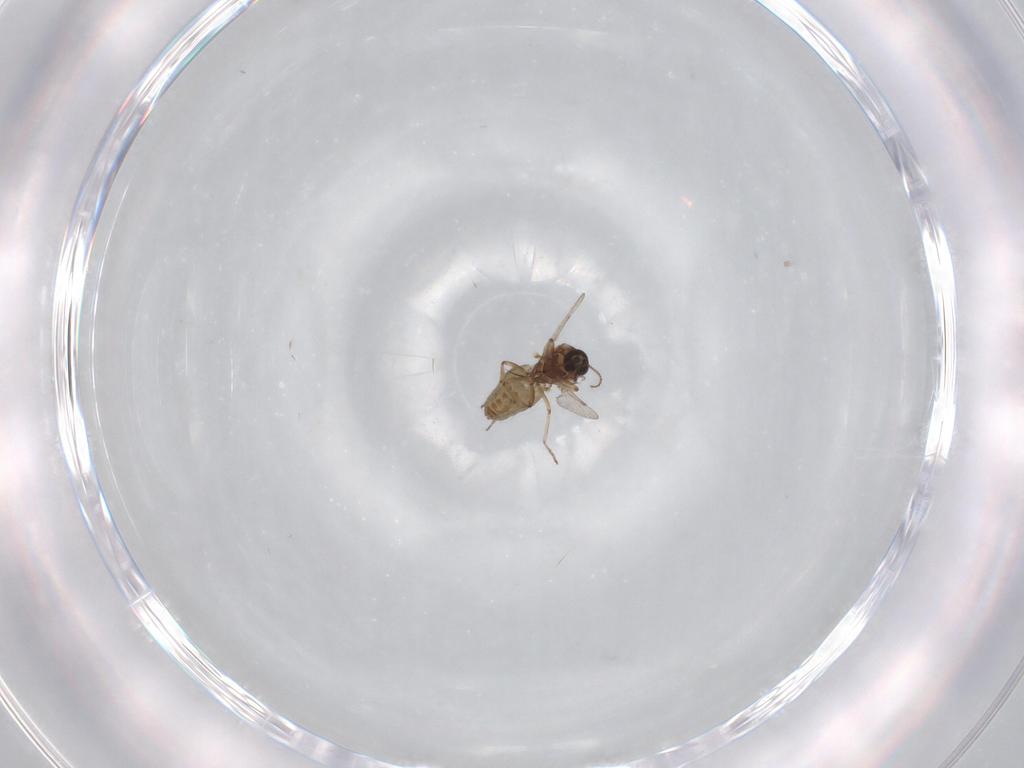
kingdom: Animalia
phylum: Arthropoda
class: Insecta
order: Diptera
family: Ceratopogonidae
